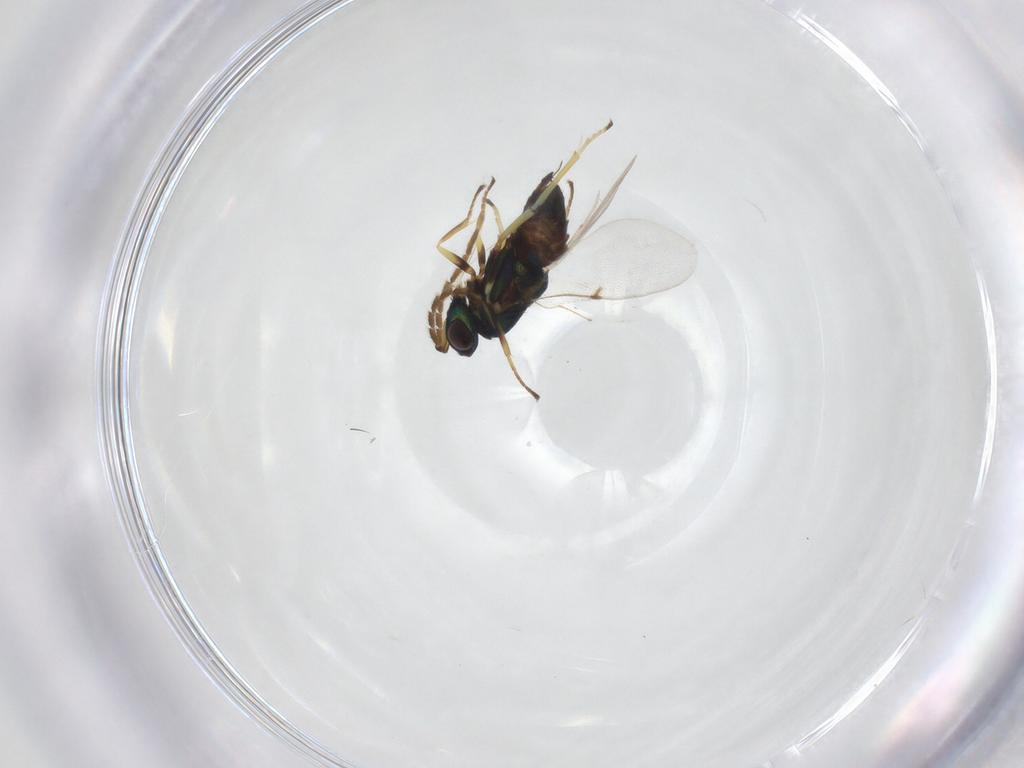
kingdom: Animalia
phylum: Arthropoda
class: Insecta
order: Hymenoptera
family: Encyrtidae
